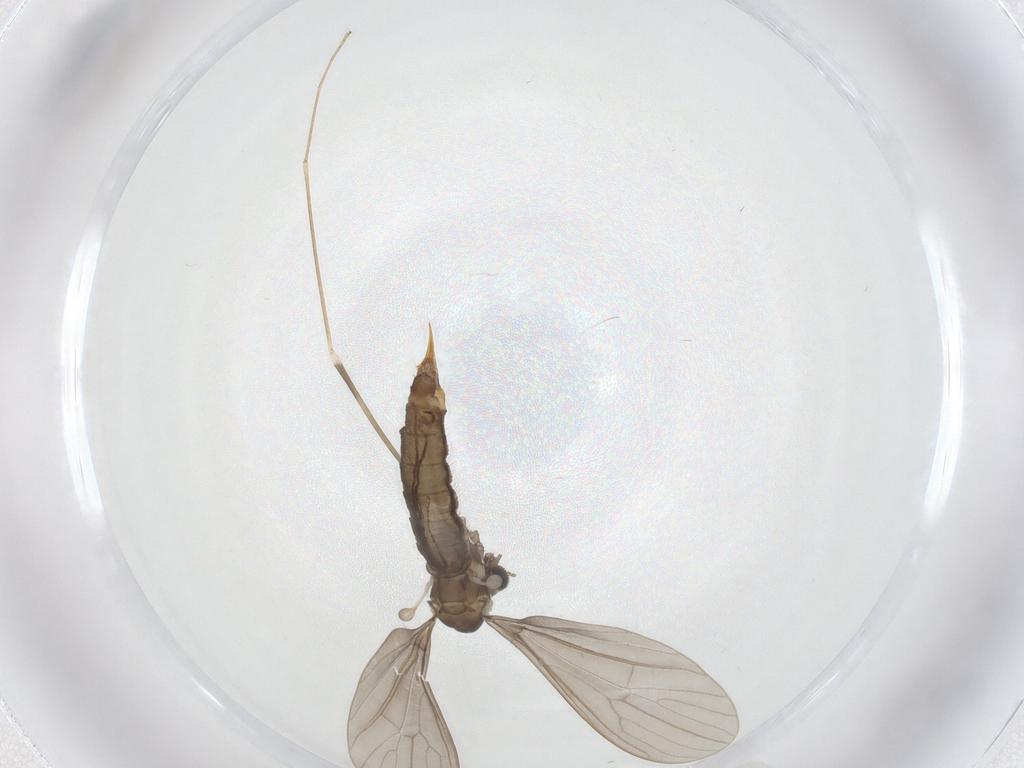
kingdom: Animalia
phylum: Arthropoda
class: Insecta
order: Diptera
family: Limoniidae
